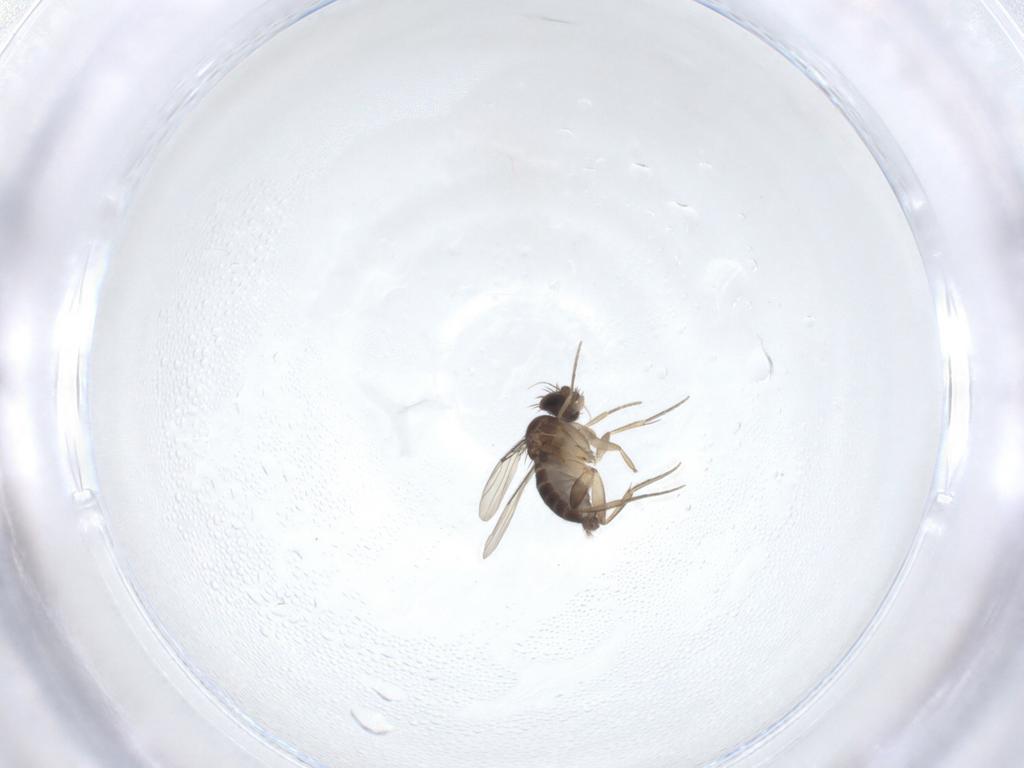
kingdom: Animalia
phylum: Arthropoda
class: Insecta
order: Diptera
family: Phoridae
